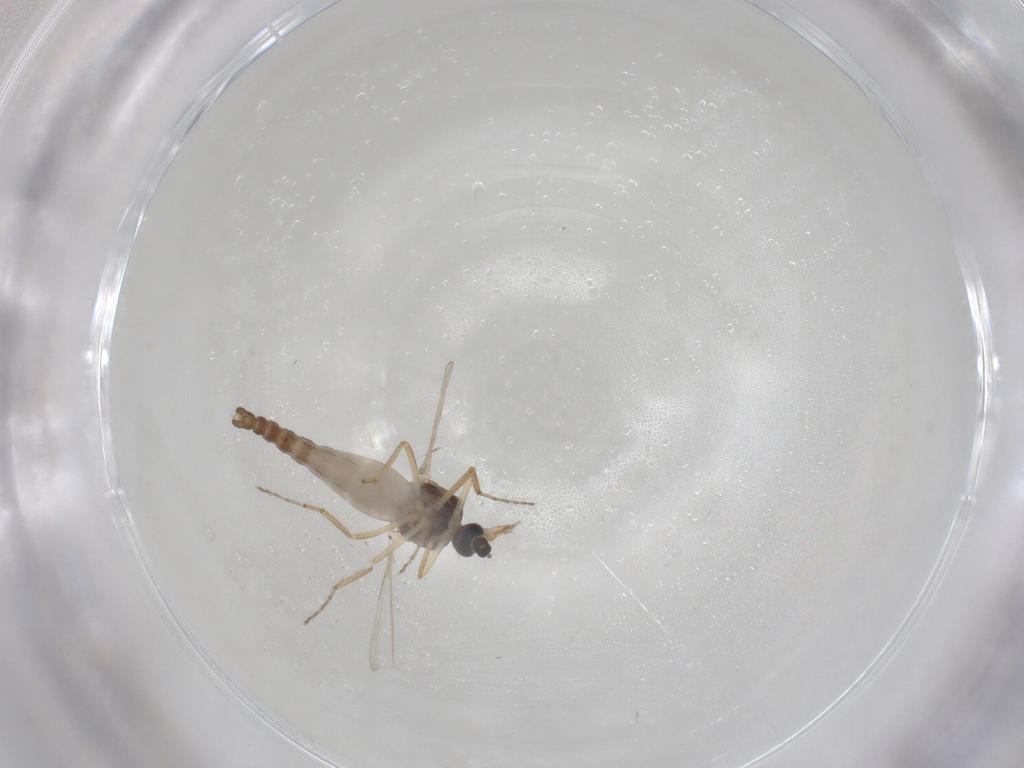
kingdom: Animalia
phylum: Arthropoda
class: Insecta
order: Diptera
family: Ceratopogonidae
